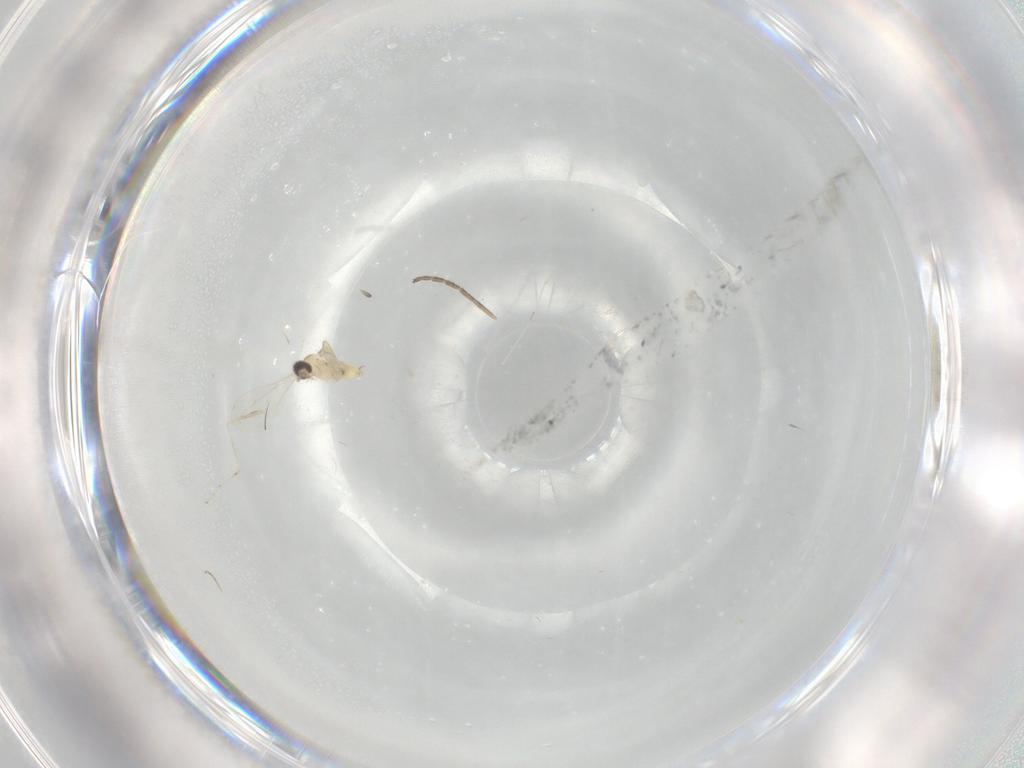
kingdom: Animalia
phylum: Arthropoda
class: Insecta
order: Diptera
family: Cecidomyiidae
